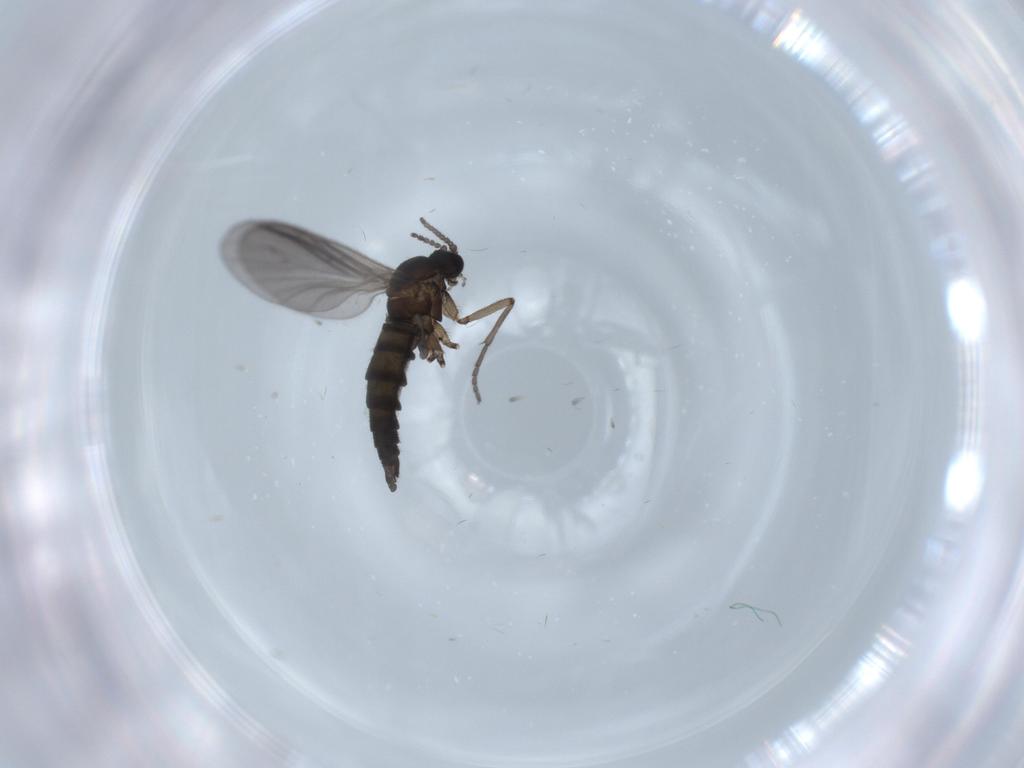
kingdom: Animalia
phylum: Arthropoda
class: Insecta
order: Diptera
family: Sciaridae
